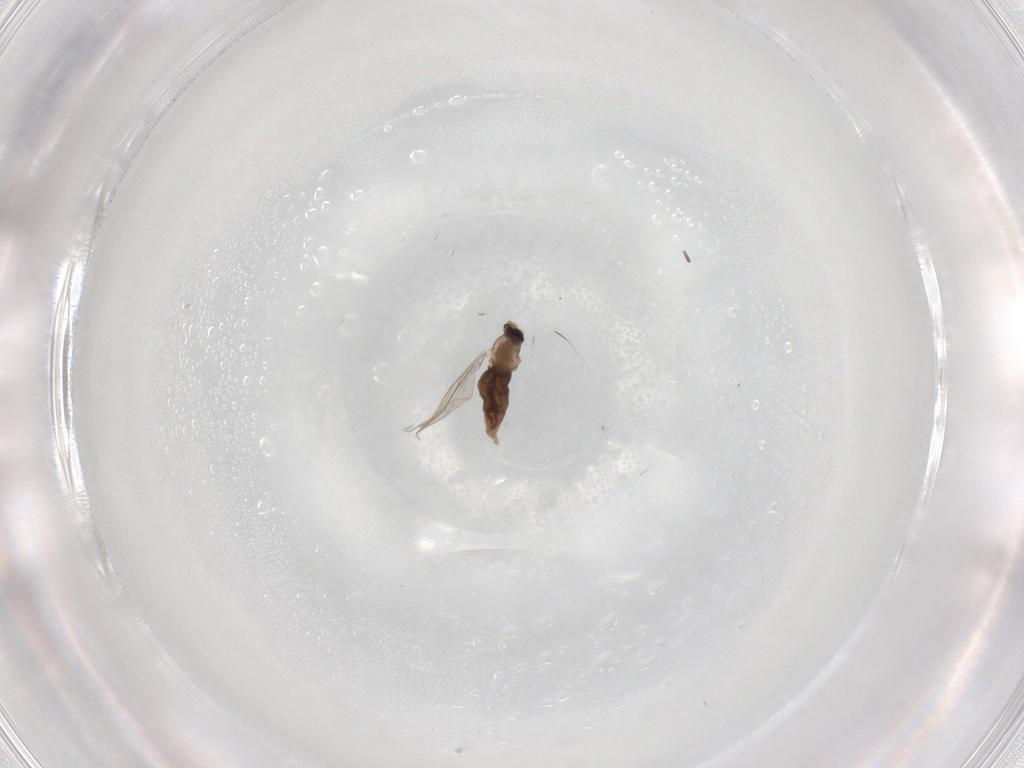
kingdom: Animalia
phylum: Arthropoda
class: Insecta
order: Diptera
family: Cecidomyiidae
